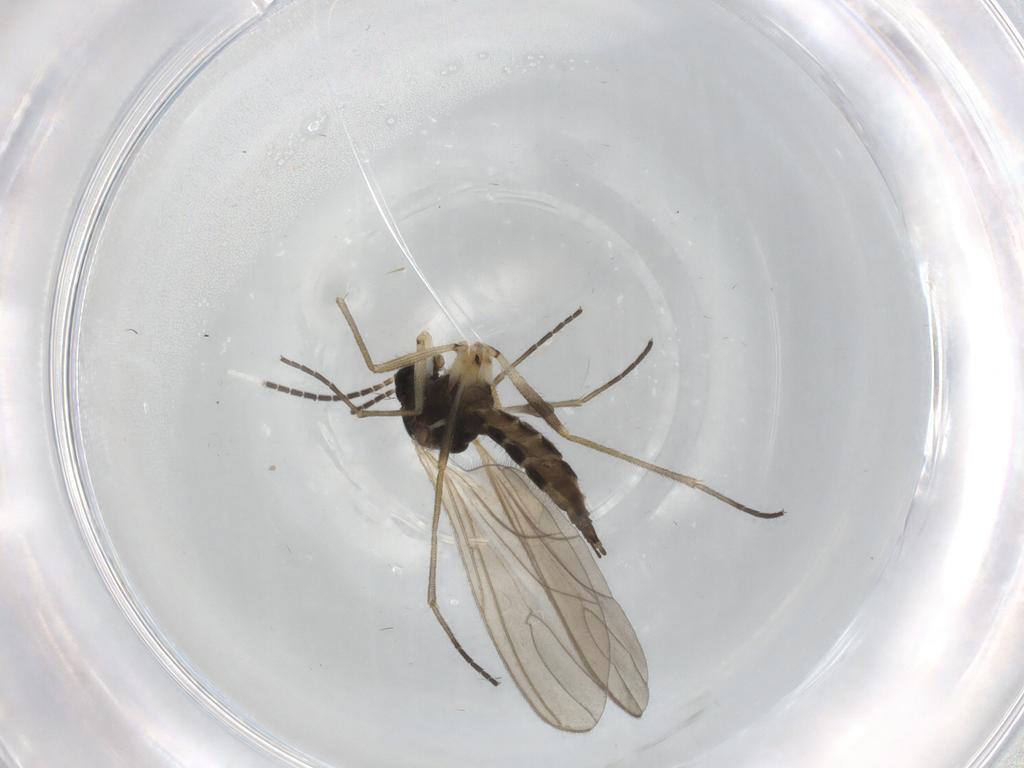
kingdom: Animalia
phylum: Arthropoda
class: Insecta
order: Diptera
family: Sciaridae
